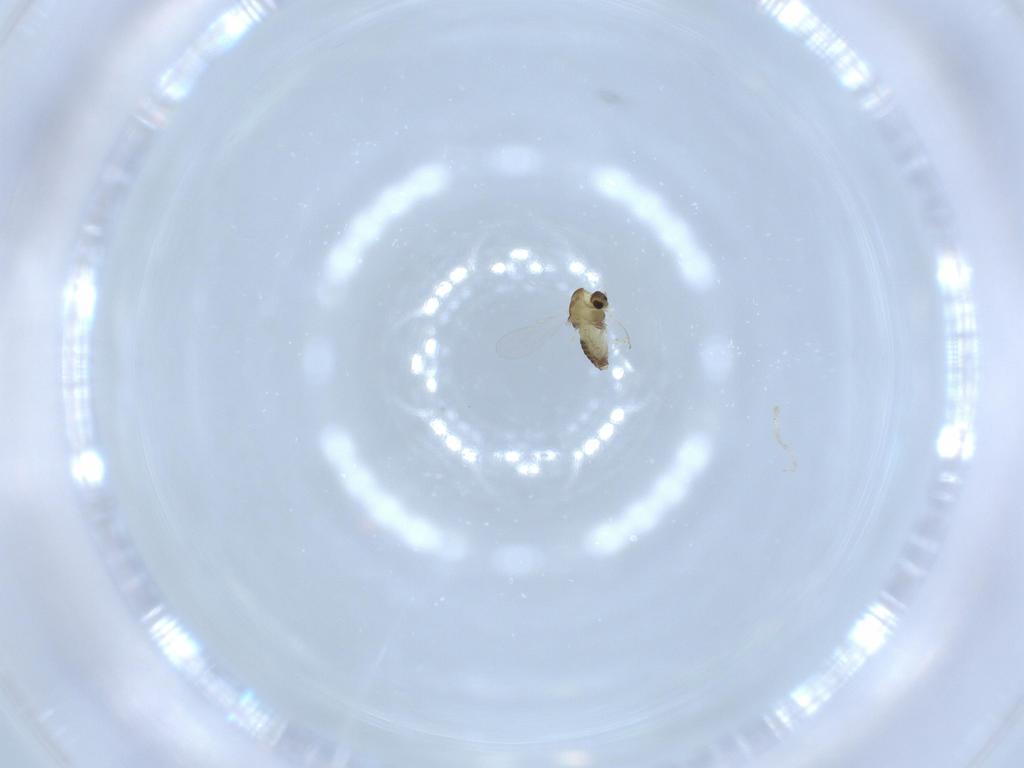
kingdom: Animalia
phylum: Arthropoda
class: Insecta
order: Diptera
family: Chironomidae
